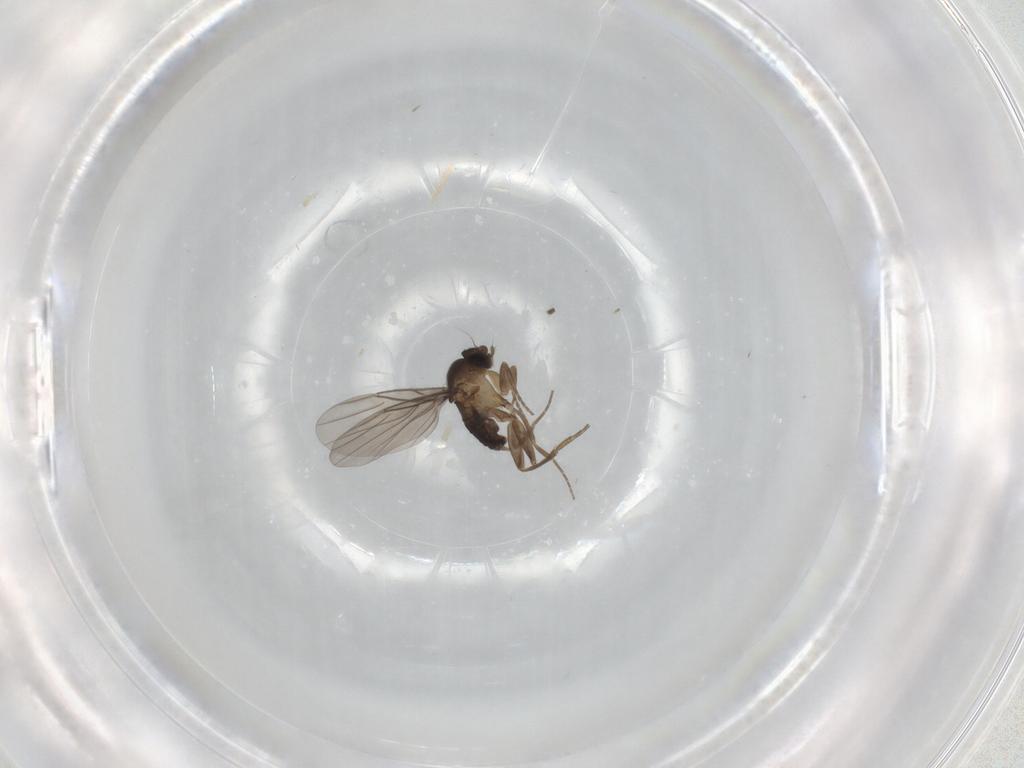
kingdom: Animalia
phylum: Arthropoda
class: Insecta
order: Diptera
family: Phoridae
